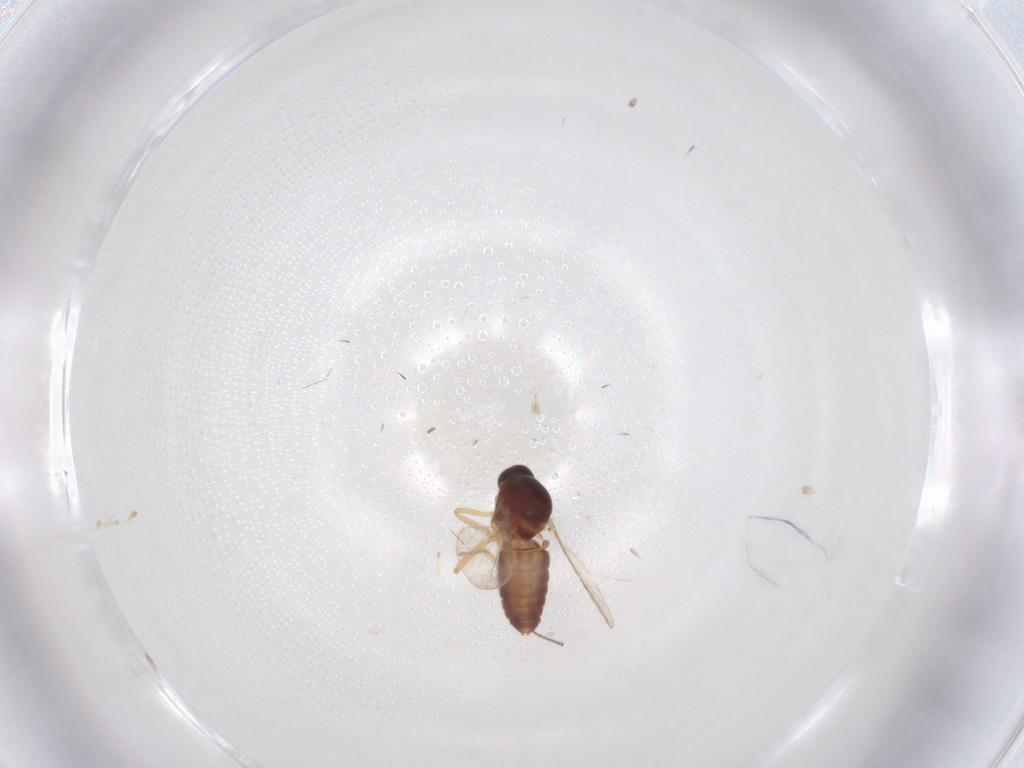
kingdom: Animalia
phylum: Arthropoda
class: Insecta
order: Diptera
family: Ceratopogonidae
